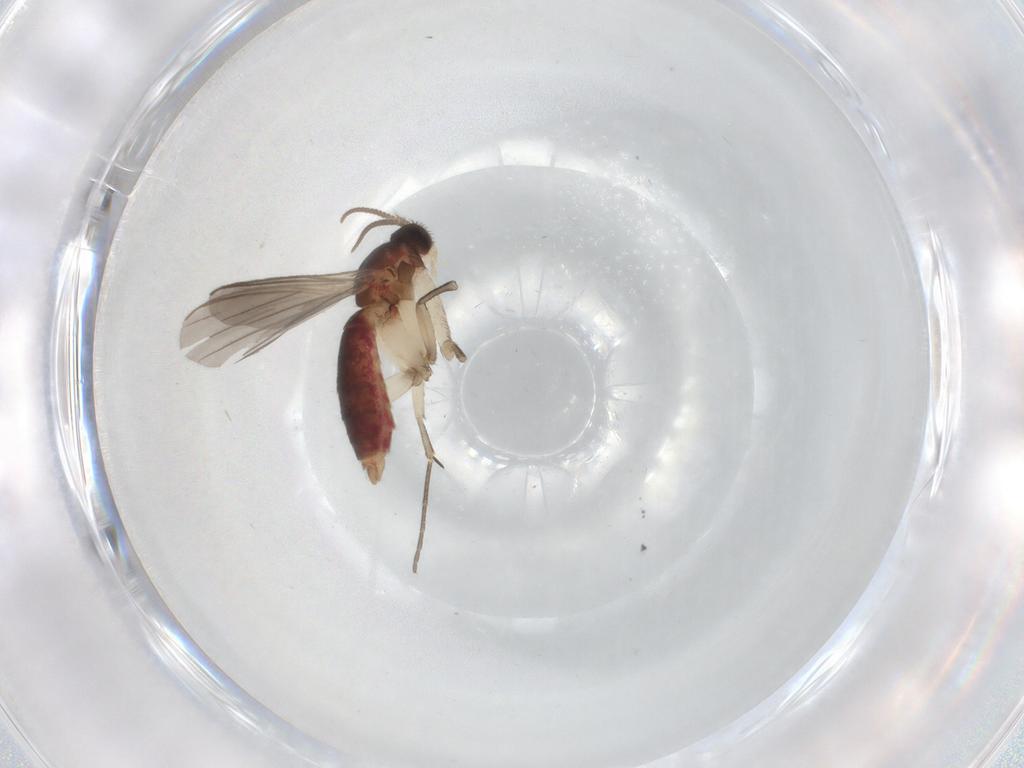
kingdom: Animalia
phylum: Arthropoda
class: Insecta
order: Diptera
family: Mycetophilidae
